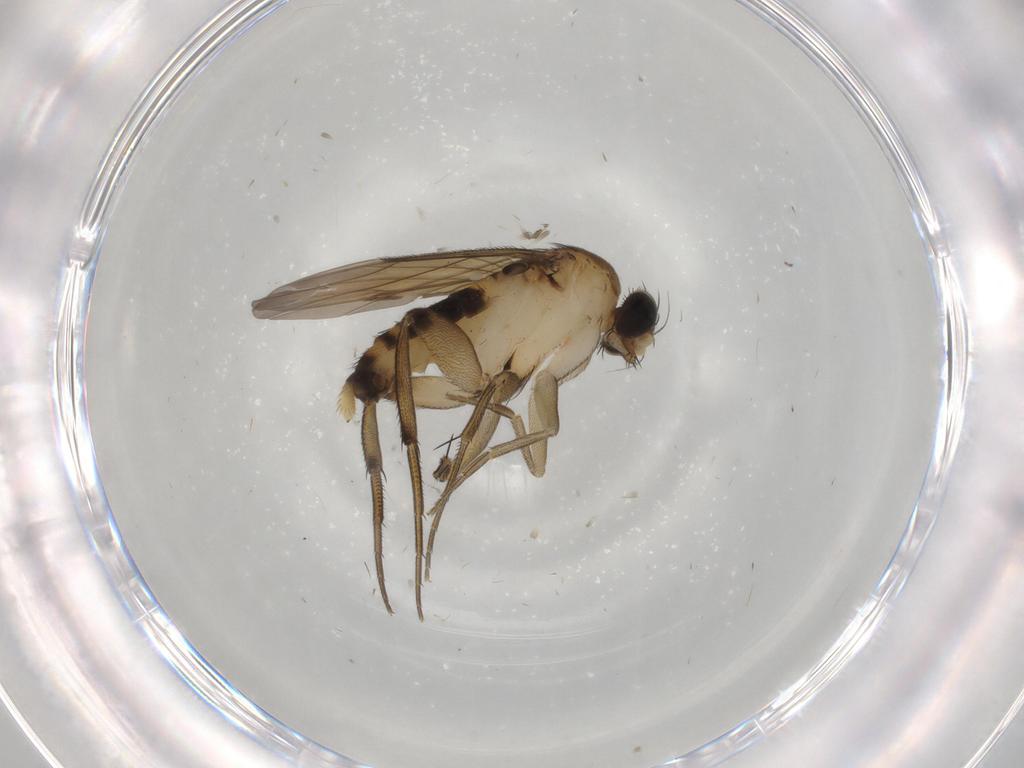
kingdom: Animalia
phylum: Arthropoda
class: Insecta
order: Diptera
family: Phoridae
